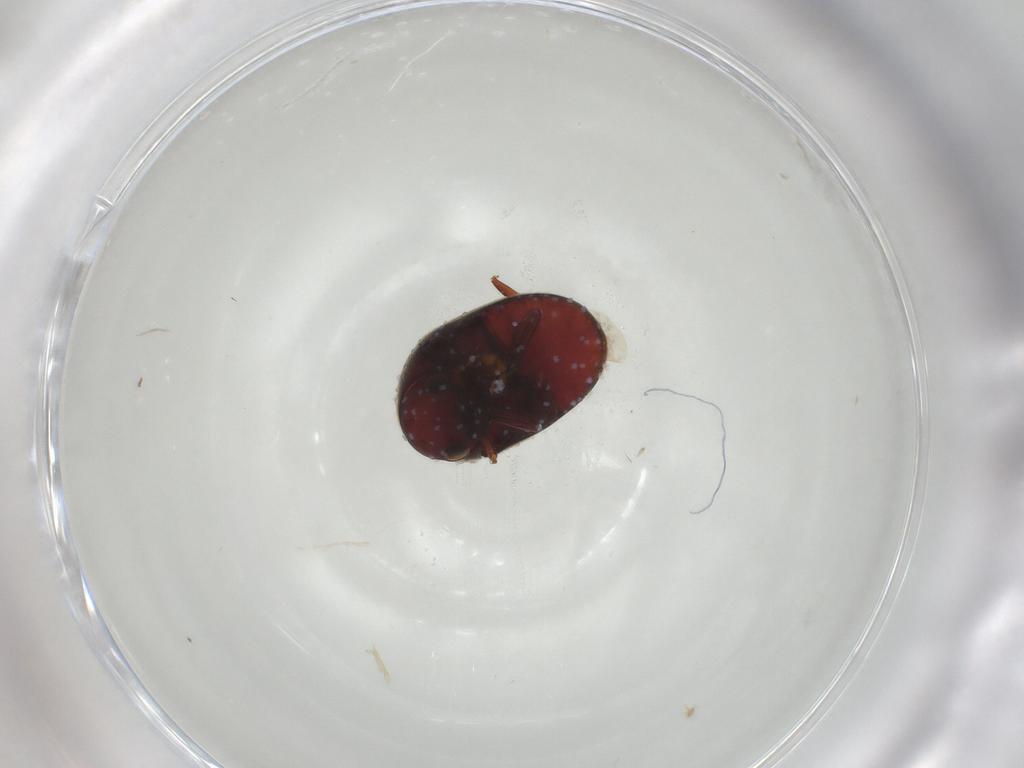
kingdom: Animalia
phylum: Arthropoda
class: Insecta
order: Coleoptera
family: Ptinidae
